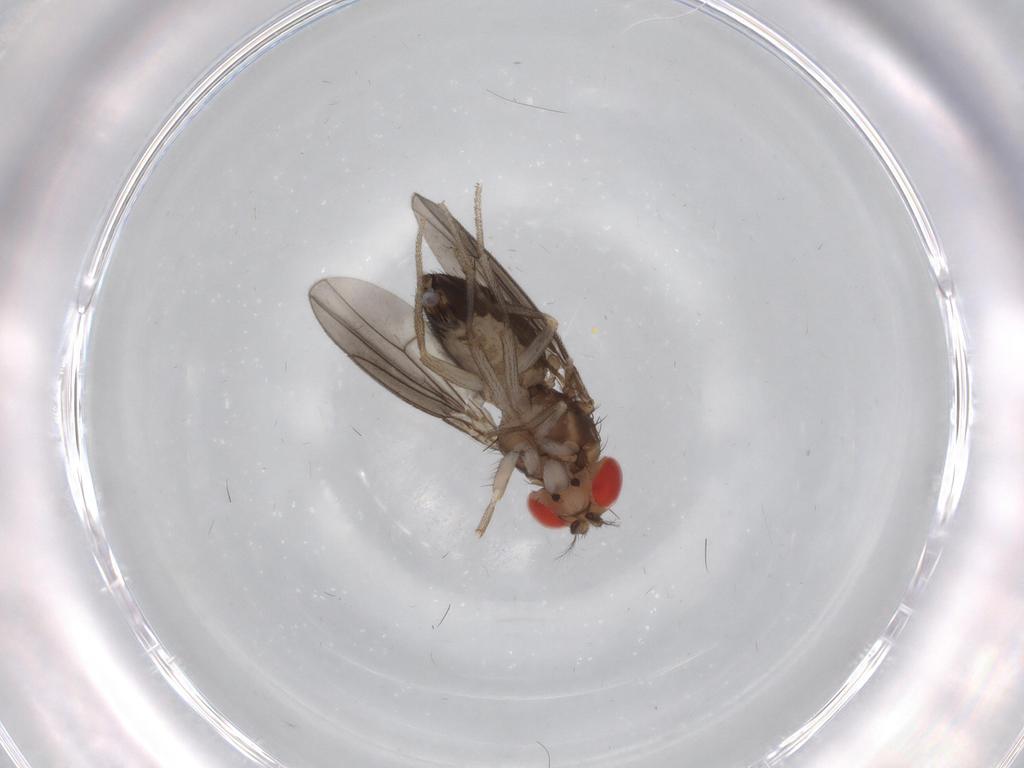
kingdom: Animalia
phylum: Arthropoda
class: Insecta
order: Diptera
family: Drosophilidae
